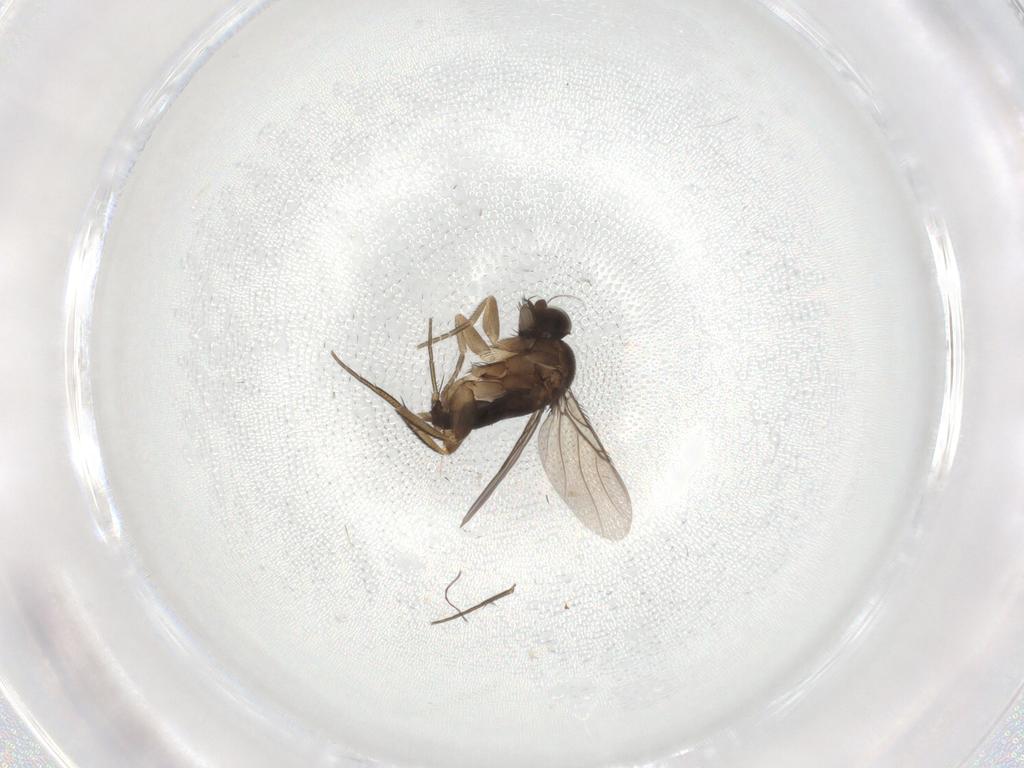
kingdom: Animalia
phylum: Arthropoda
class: Insecta
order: Diptera
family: Phoridae
